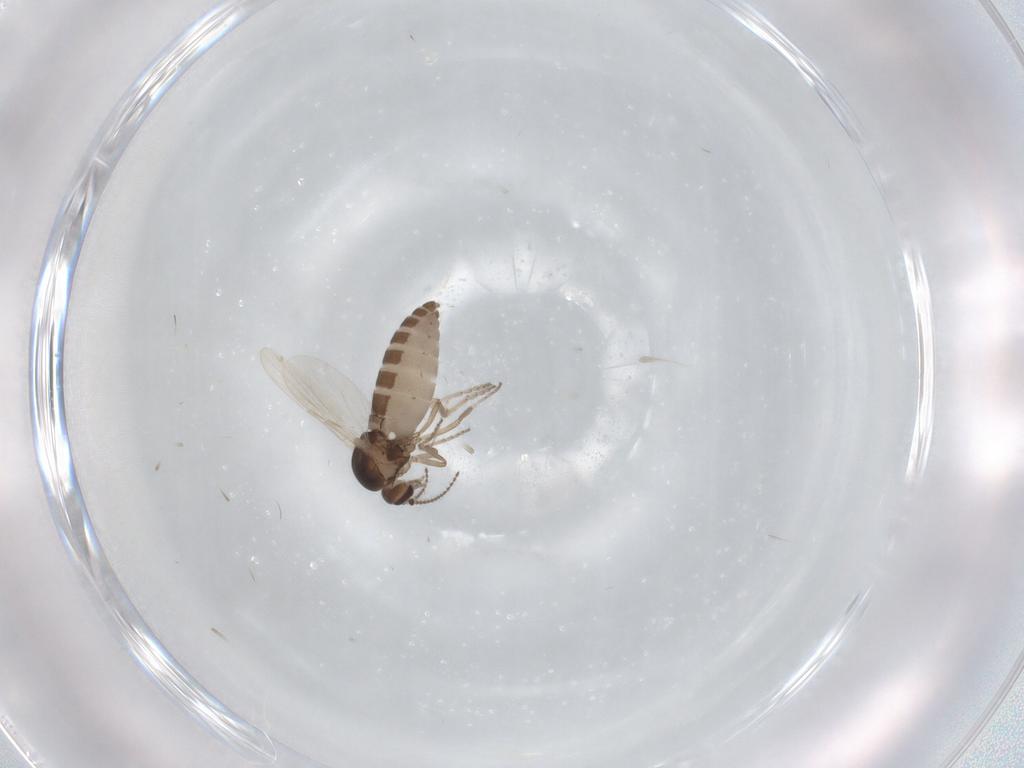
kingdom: Animalia
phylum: Arthropoda
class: Insecta
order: Diptera
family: Ceratopogonidae
